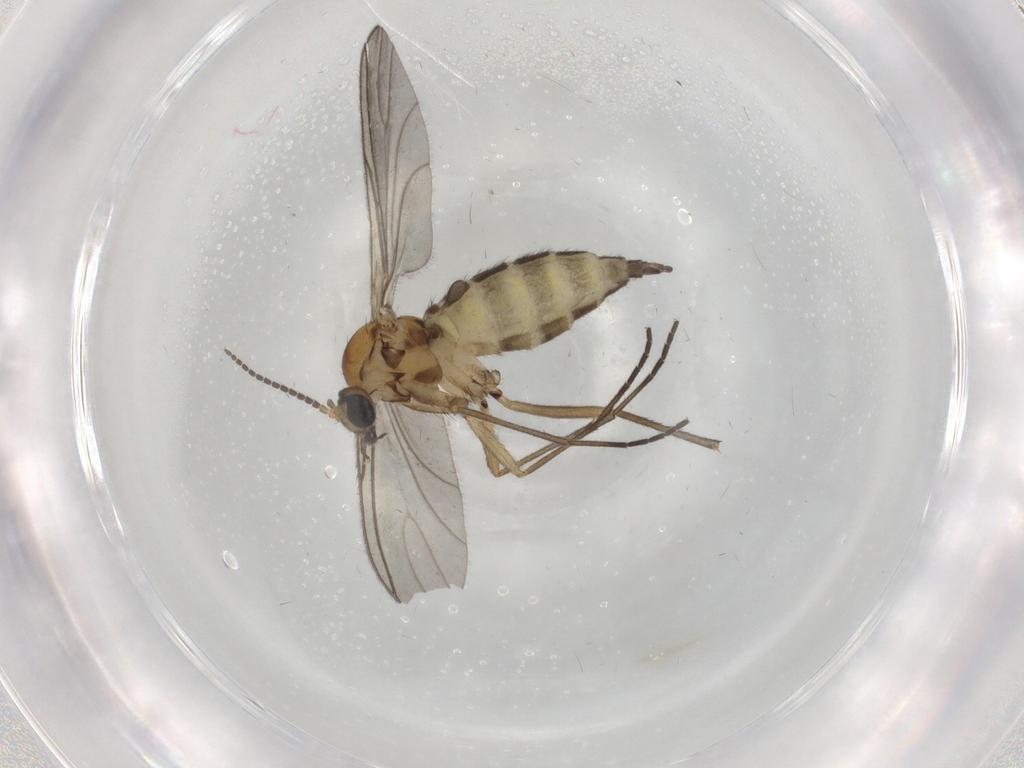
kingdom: Animalia
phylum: Arthropoda
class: Insecta
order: Diptera
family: Sciaridae
